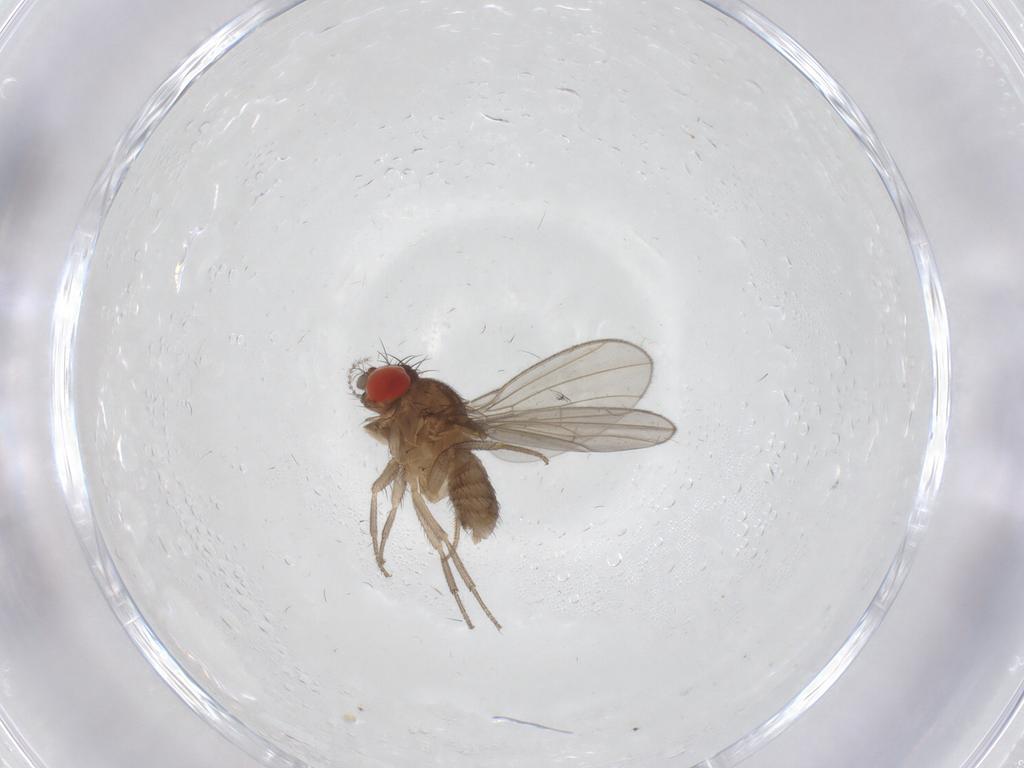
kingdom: Animalia
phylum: Arthropoda
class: Insecta
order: Diptera
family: Drosophilidae
